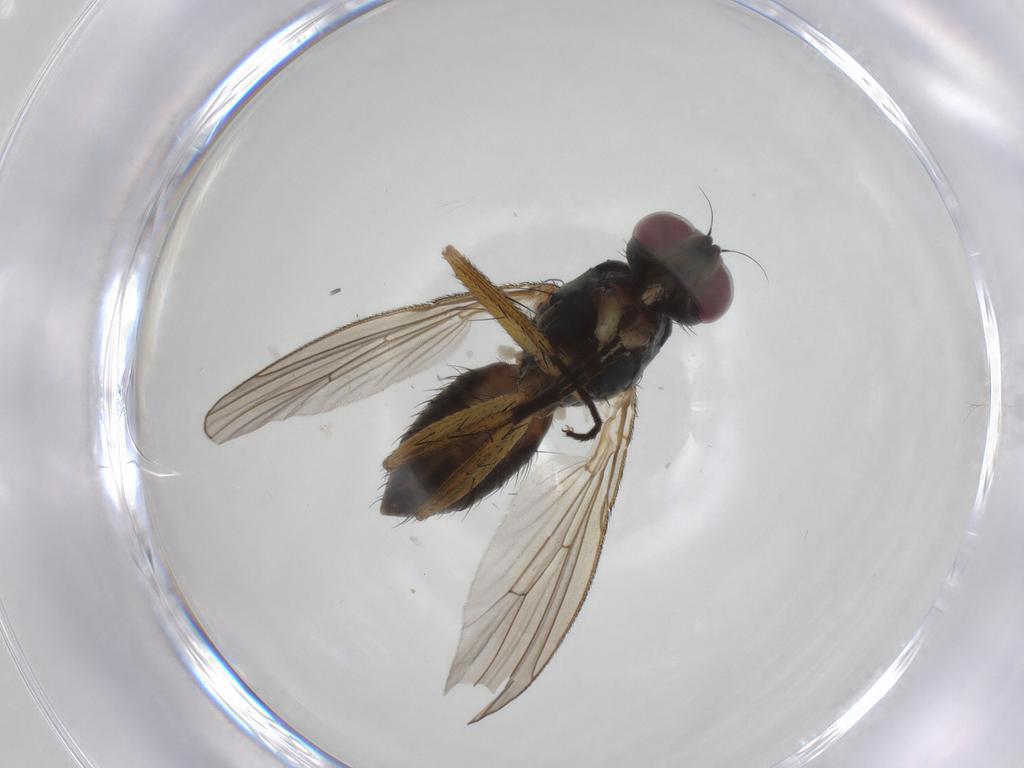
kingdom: Animalia
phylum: Arthropoda
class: Insecta
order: Diptera
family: Muscidae
